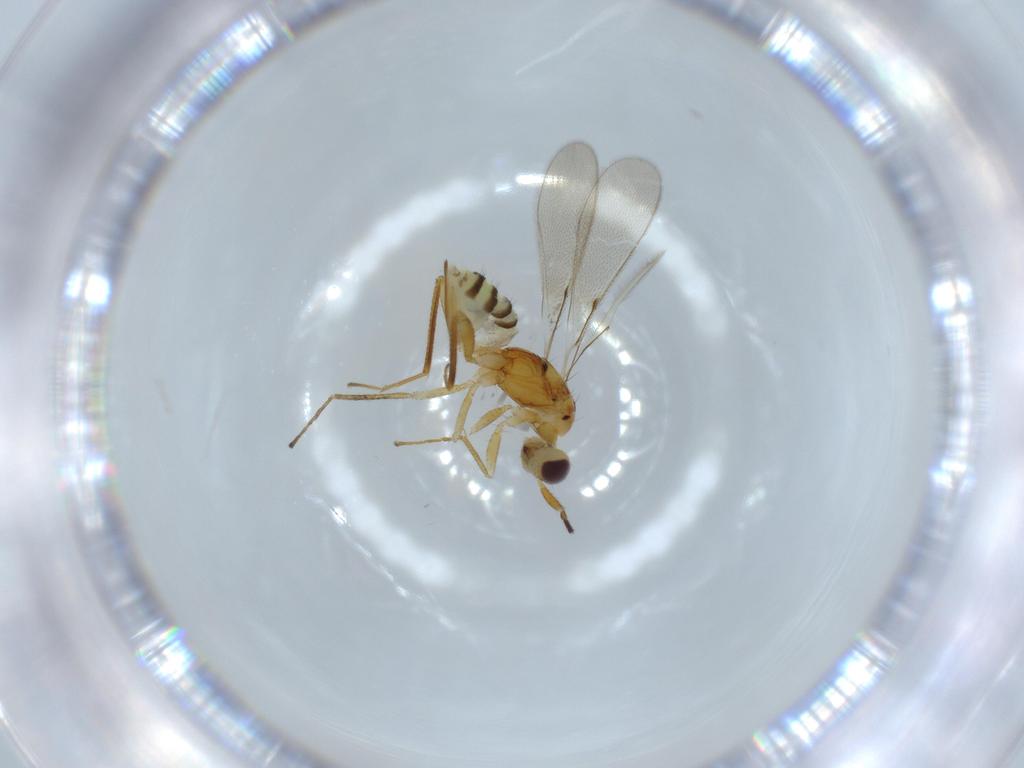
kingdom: Animalia
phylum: Arthropoda
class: Insecta
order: Hymenoptera
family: Mymaridae
